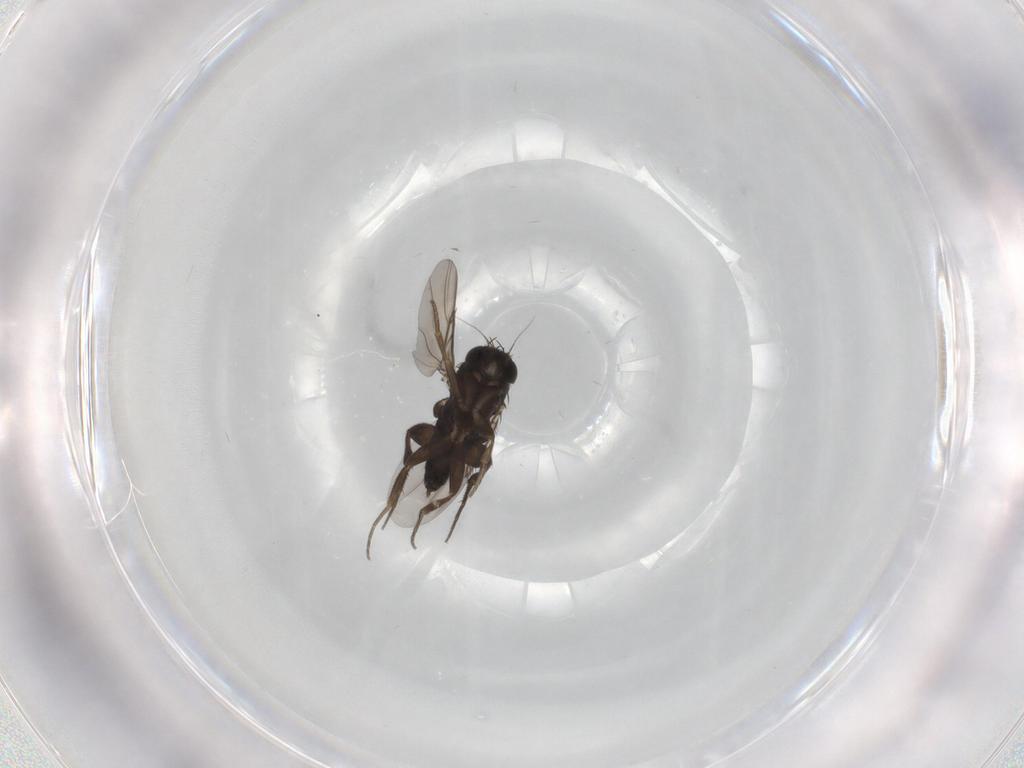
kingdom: Animalia
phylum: Arthropoda
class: Insecta
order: Diptera
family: Phoridae
